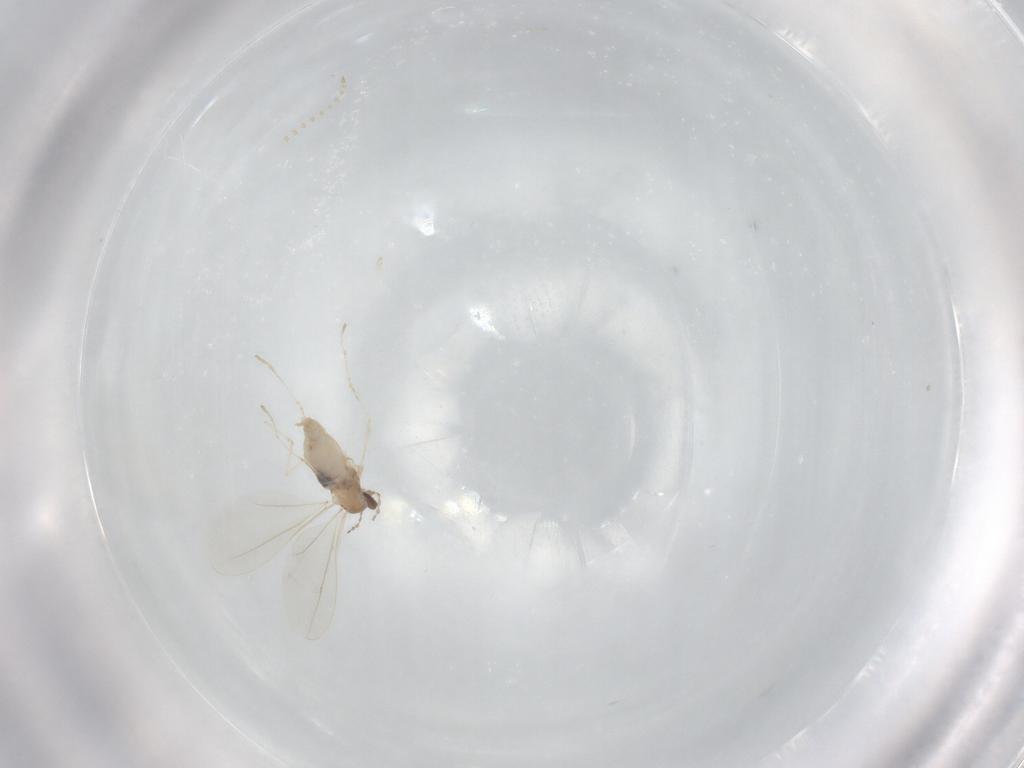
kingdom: Animalia
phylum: Arthropoda
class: Insecta
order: Diptera
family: Cecidomyiidae
